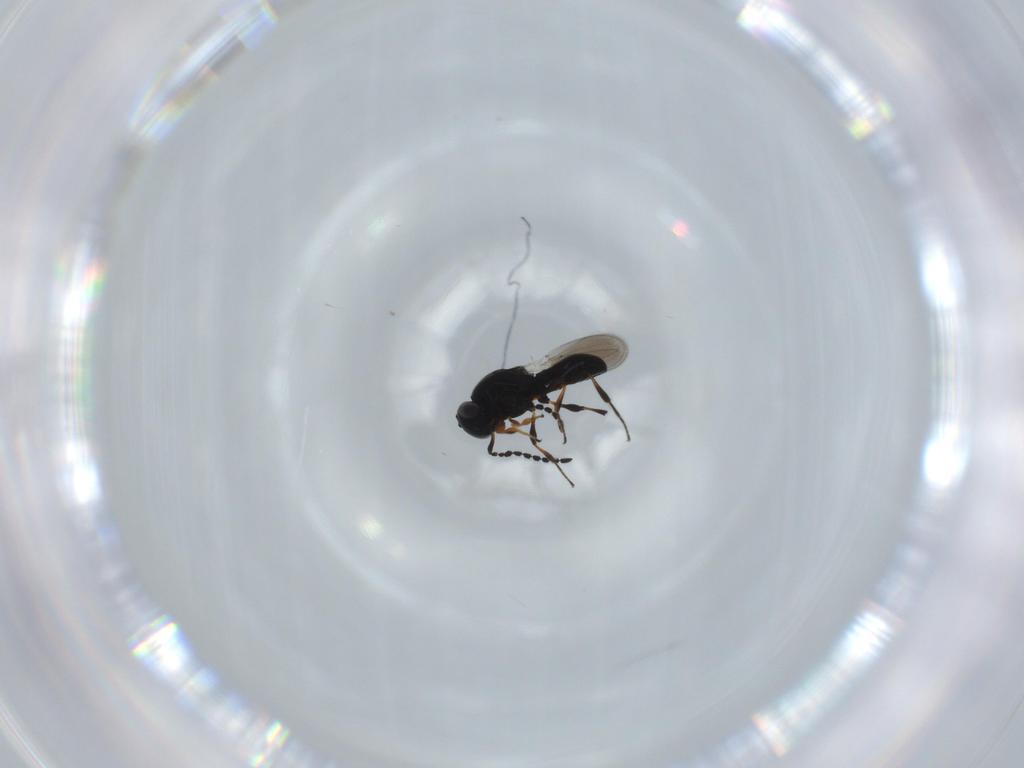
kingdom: Animalia
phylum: Arthropoda
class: Insecta
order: Hymenoptera
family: Platygastridae
